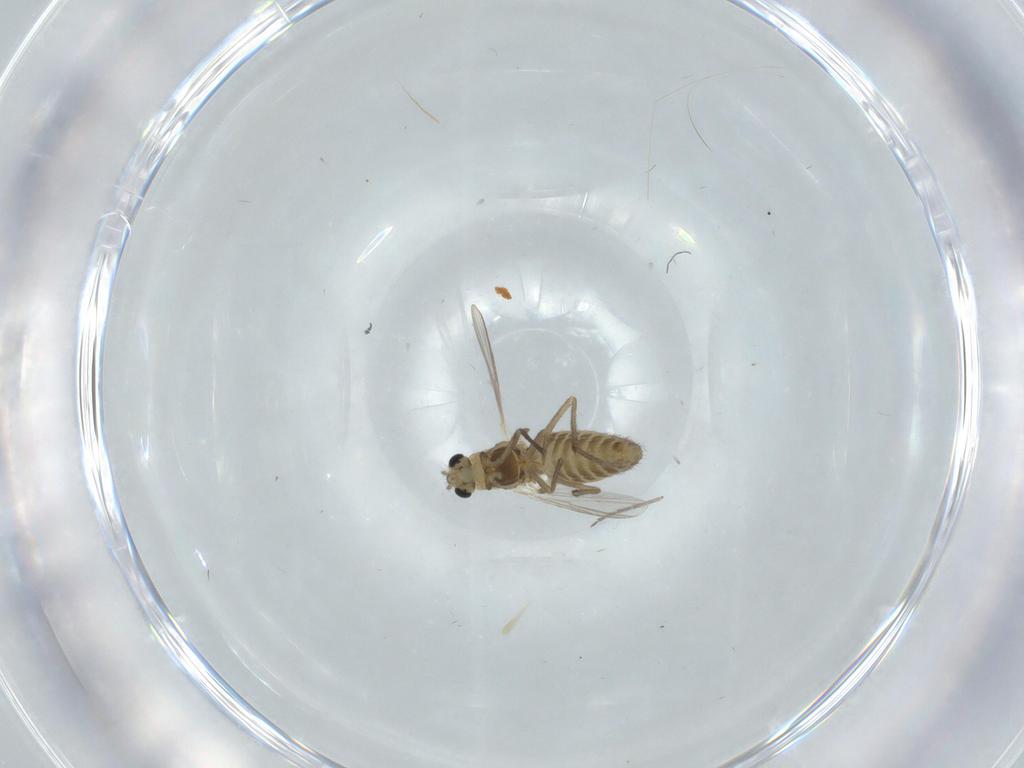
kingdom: Animalia
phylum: Arthropoda
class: Insecta
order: Diptera
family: Chironomidae
